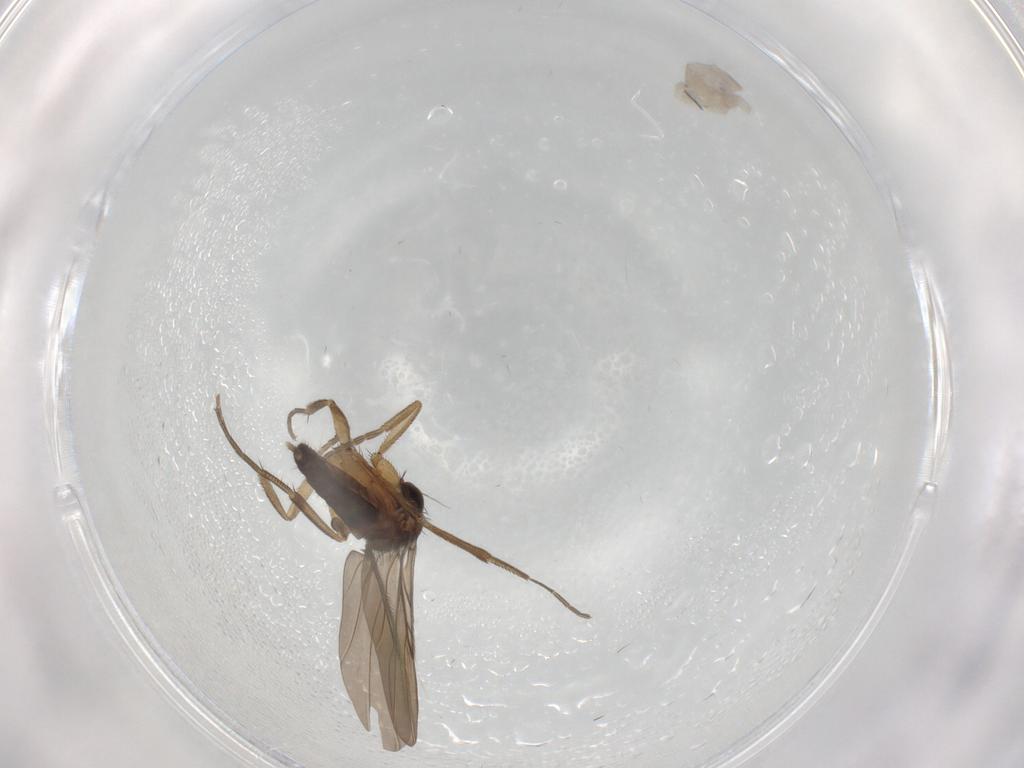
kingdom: Animalia
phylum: Arthropoda
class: Insecta
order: Diptera
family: Phoridae
